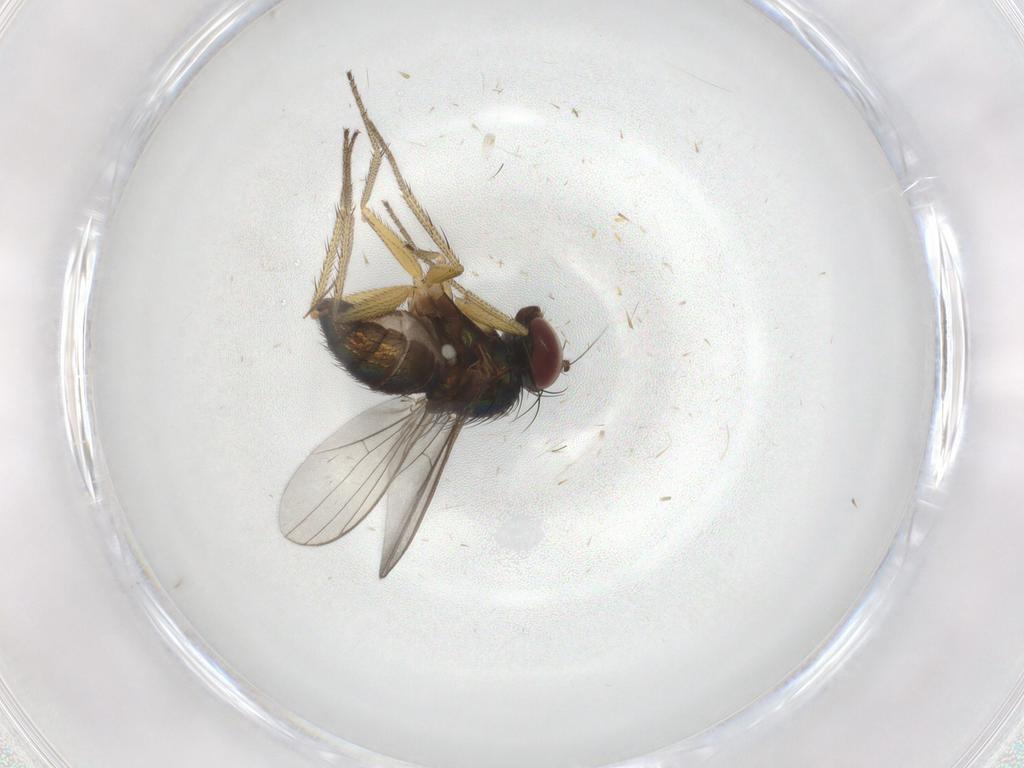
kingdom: Animalia
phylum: Arthropoda
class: Insecta
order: Diptera
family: Dolichopodidae
